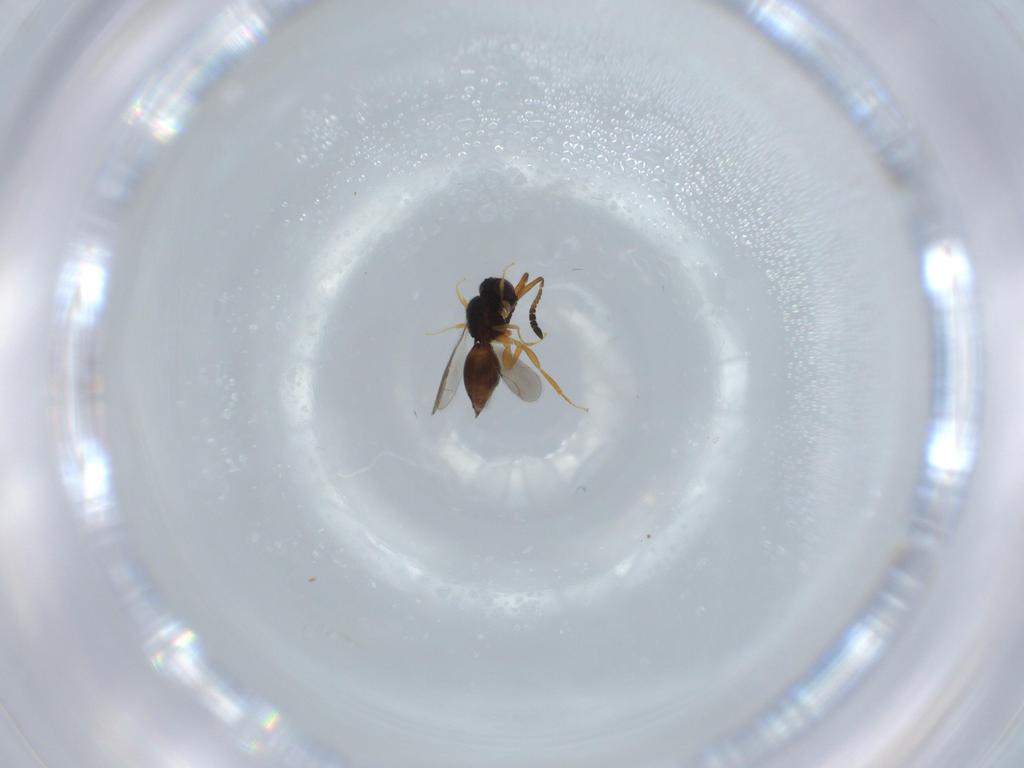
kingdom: Animalia
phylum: Arthropoda
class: Insecta
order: Hymenoptera
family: Ceraphronidae
